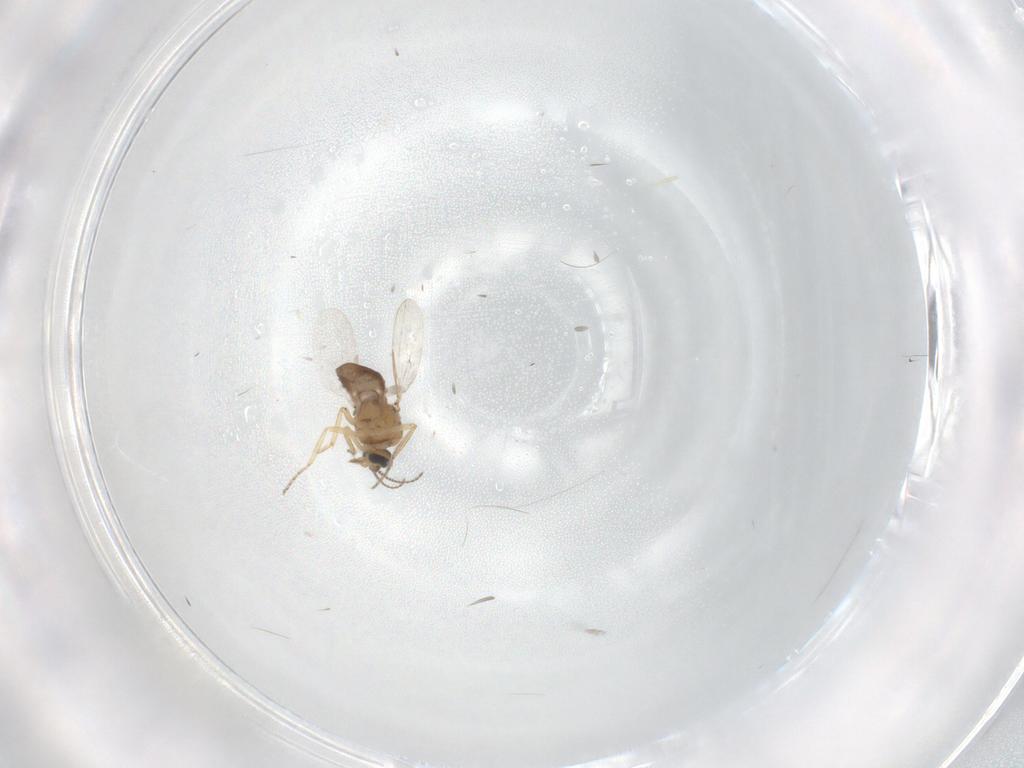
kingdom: Animalia
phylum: Arthropoda
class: Insecta
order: Diptera
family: Ceratopogonidae
